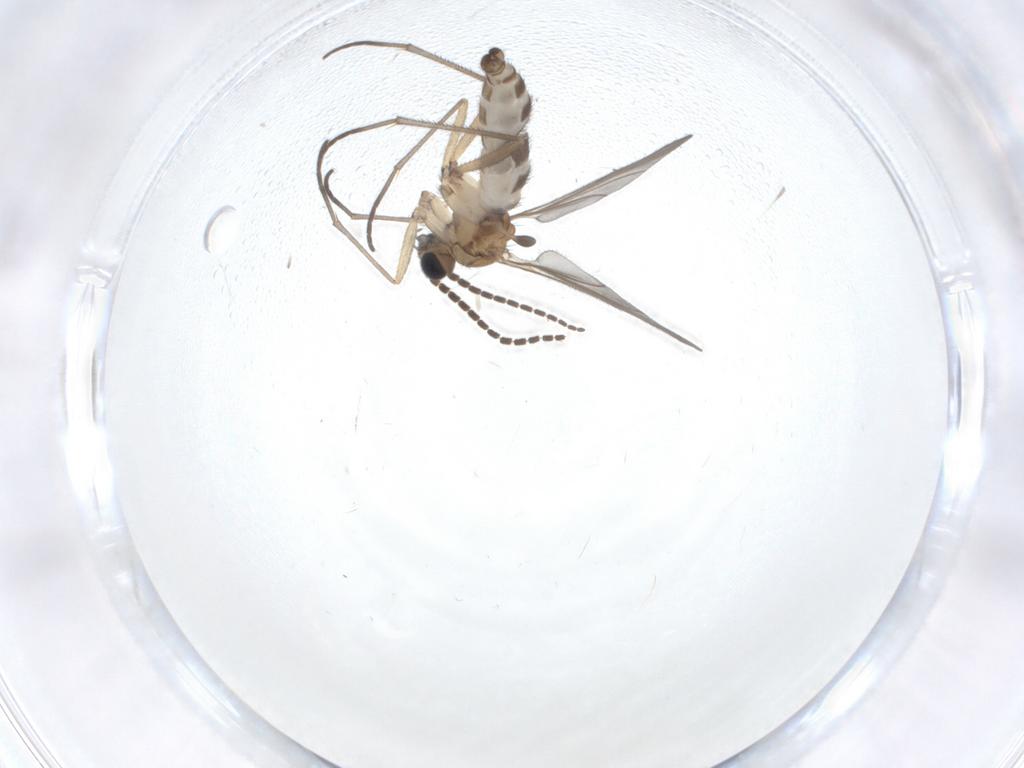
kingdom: Animalia
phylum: Arthropoda
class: Insecta
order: Diptera
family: Sciaridae
